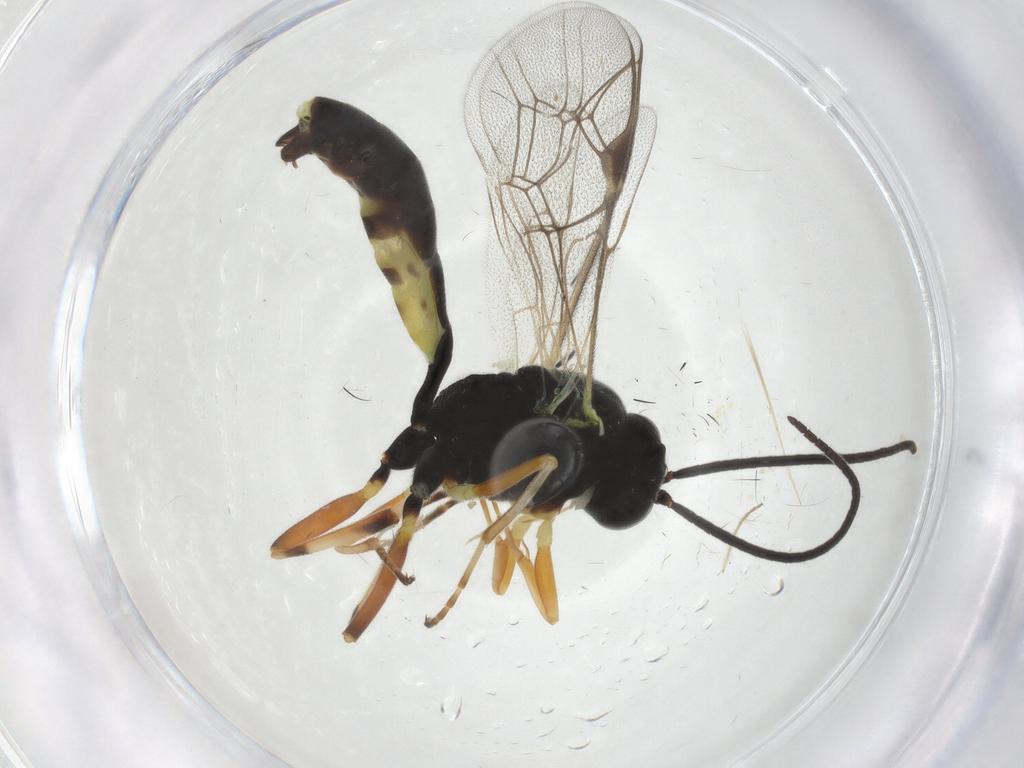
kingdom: Animalia
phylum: Arthropoda
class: Insecta
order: Hymenoptera
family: Ichneumonidae
